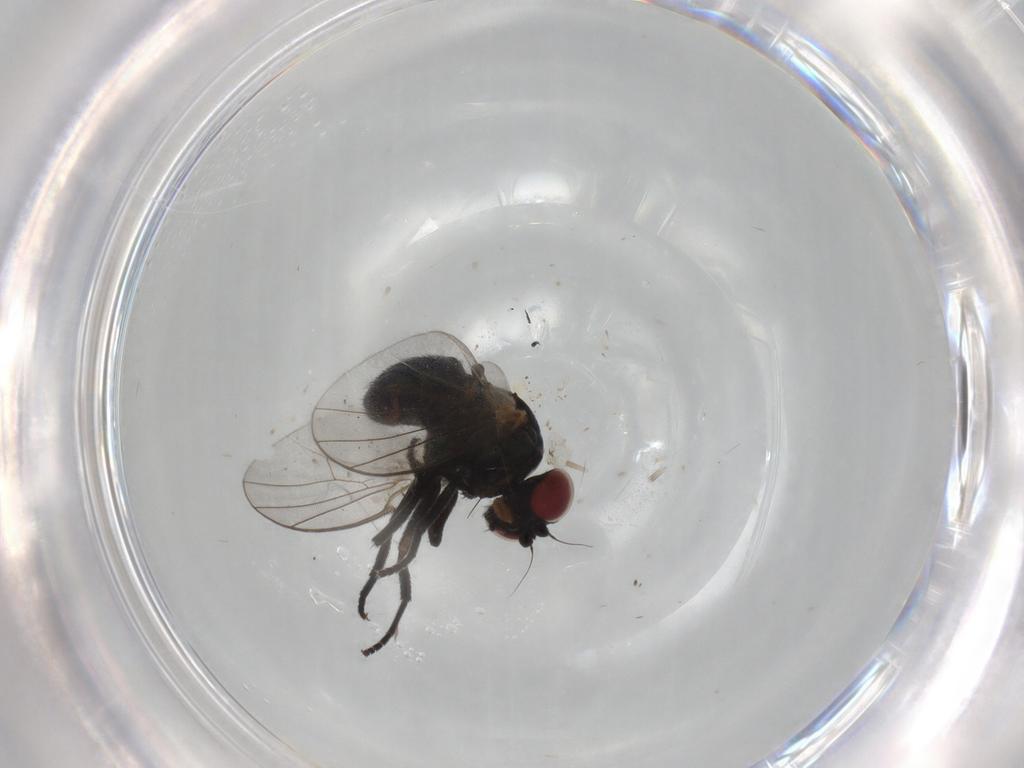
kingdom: Animalia
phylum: Arthropoda
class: Insecta
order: Diptera
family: Agromyzidae
